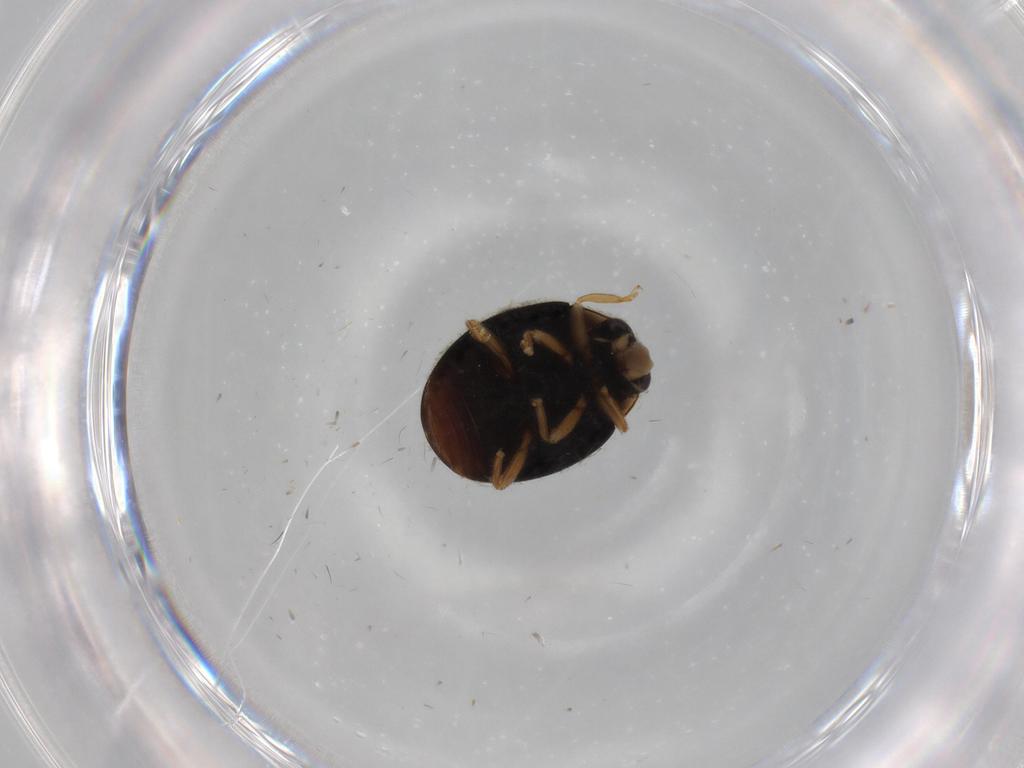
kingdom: Animalia
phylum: Arthropoda
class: Insecta
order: Coleoptera
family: Coccinellidae
